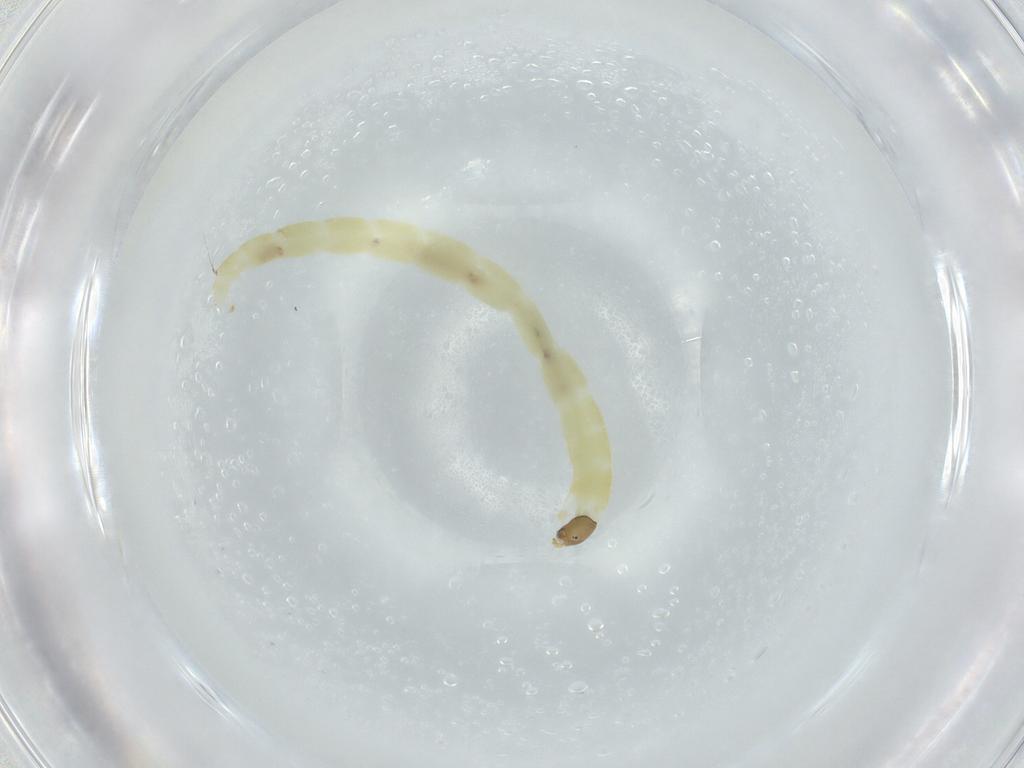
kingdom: Animalia
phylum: Arthropoda
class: Insecta
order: Diptera
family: Chironomidae
